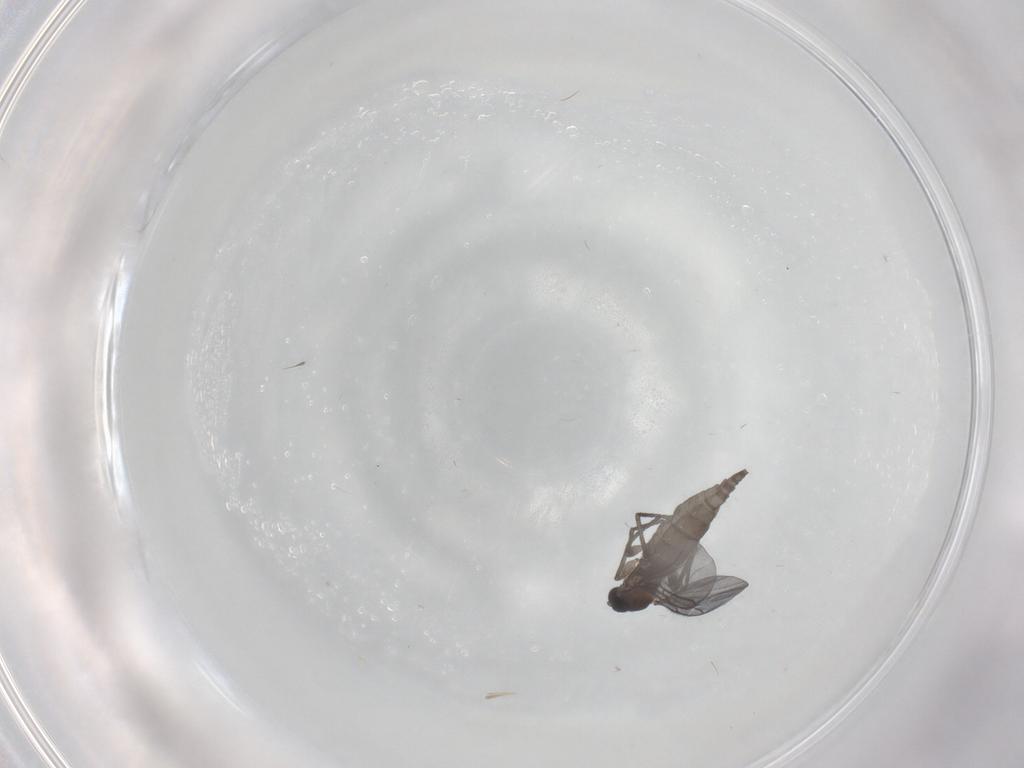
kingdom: Animalia
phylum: Arthropoda
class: Insecta
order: Diptera
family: Sciaridae
